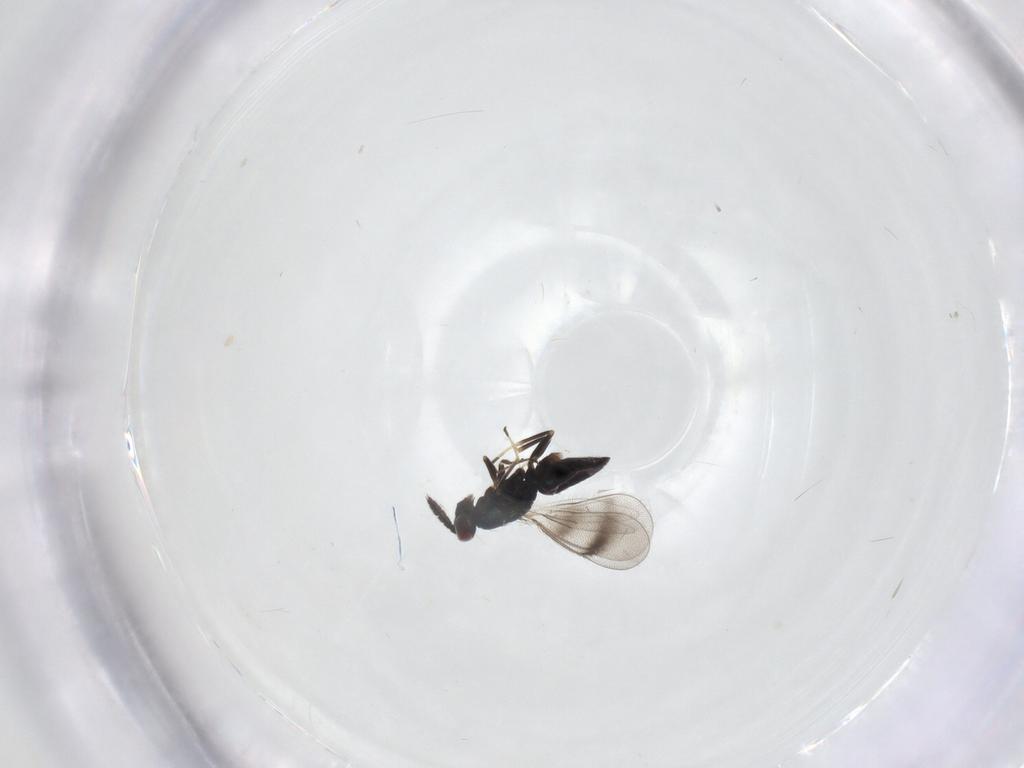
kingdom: Animalia
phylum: Arthropoda
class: Insecta
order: Hymenoptera
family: Eulophidae
